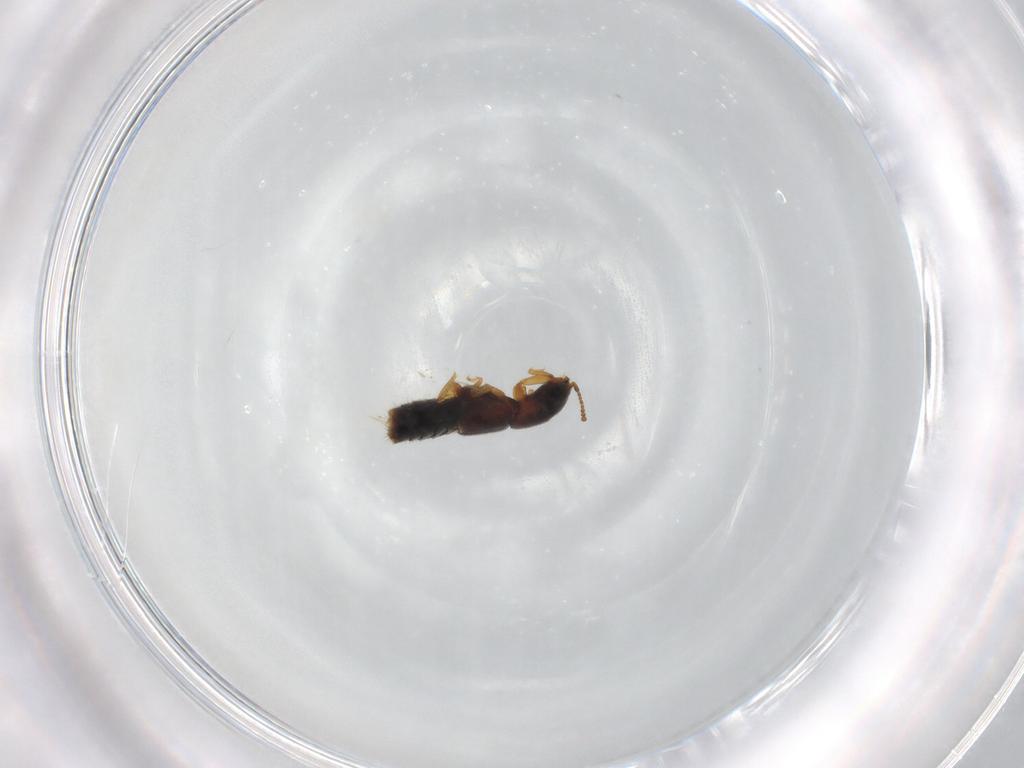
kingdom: Animalia
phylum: Arthropoda
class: Insecta
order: Coleoptera
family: Staphylinidae
